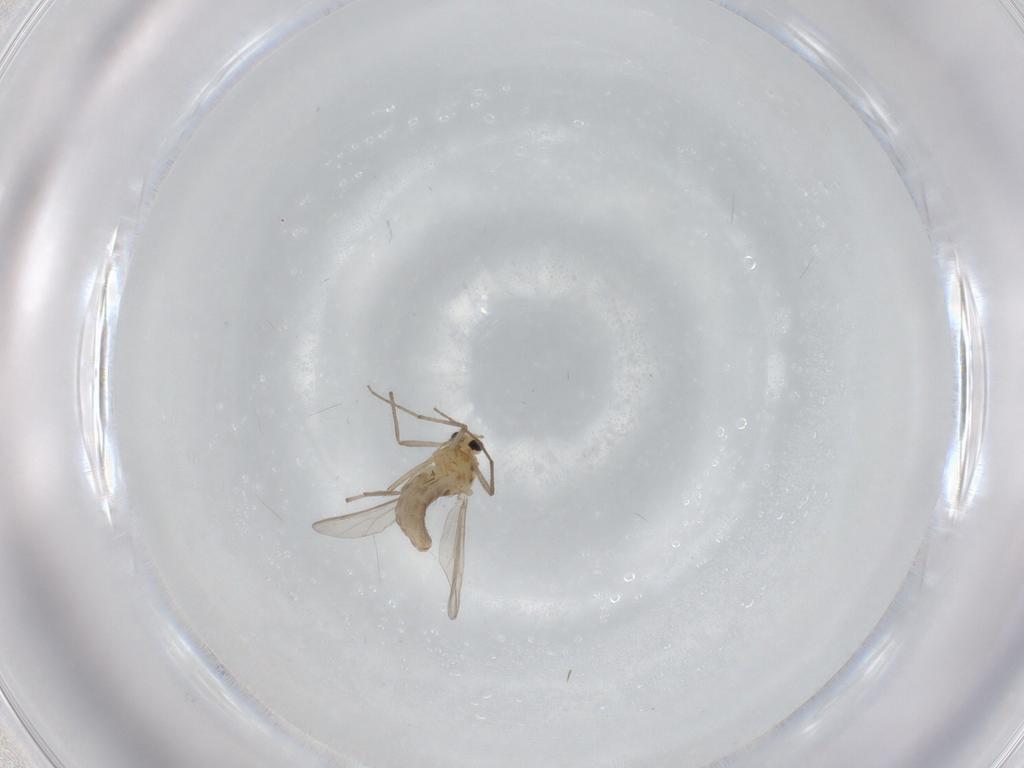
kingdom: Animalia
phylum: Arthropoda
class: Insecta
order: Diptera
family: Chironomidae
